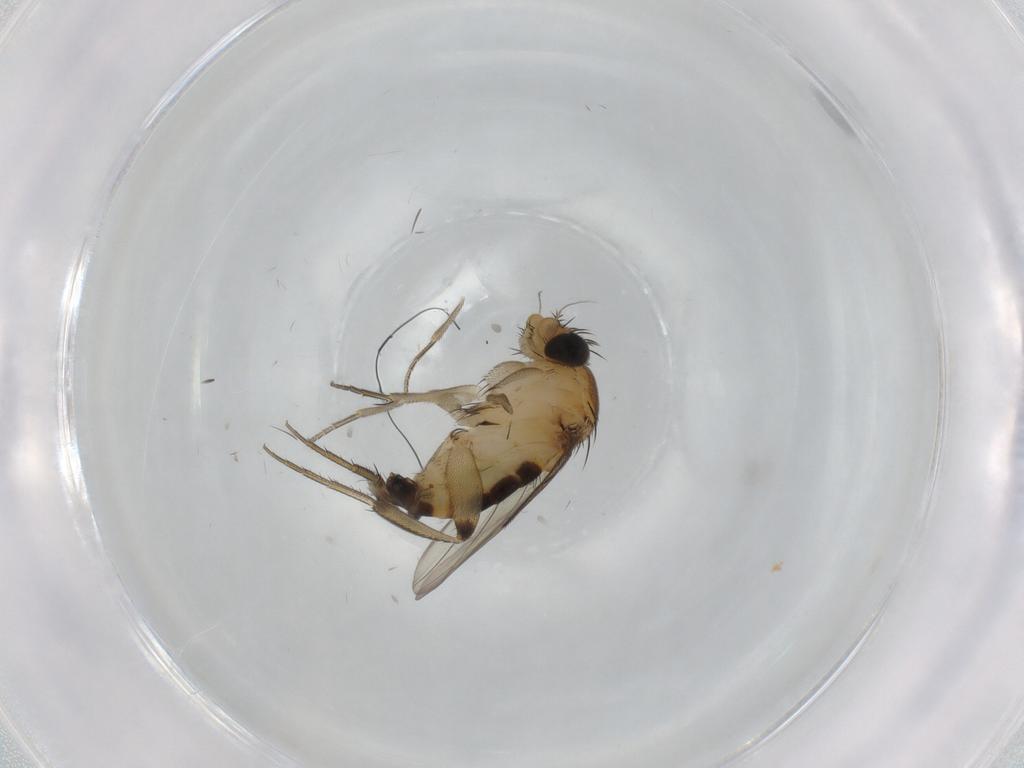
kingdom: Animalia
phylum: Arthropoda
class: Insecta
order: Diptera
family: Phoridae
